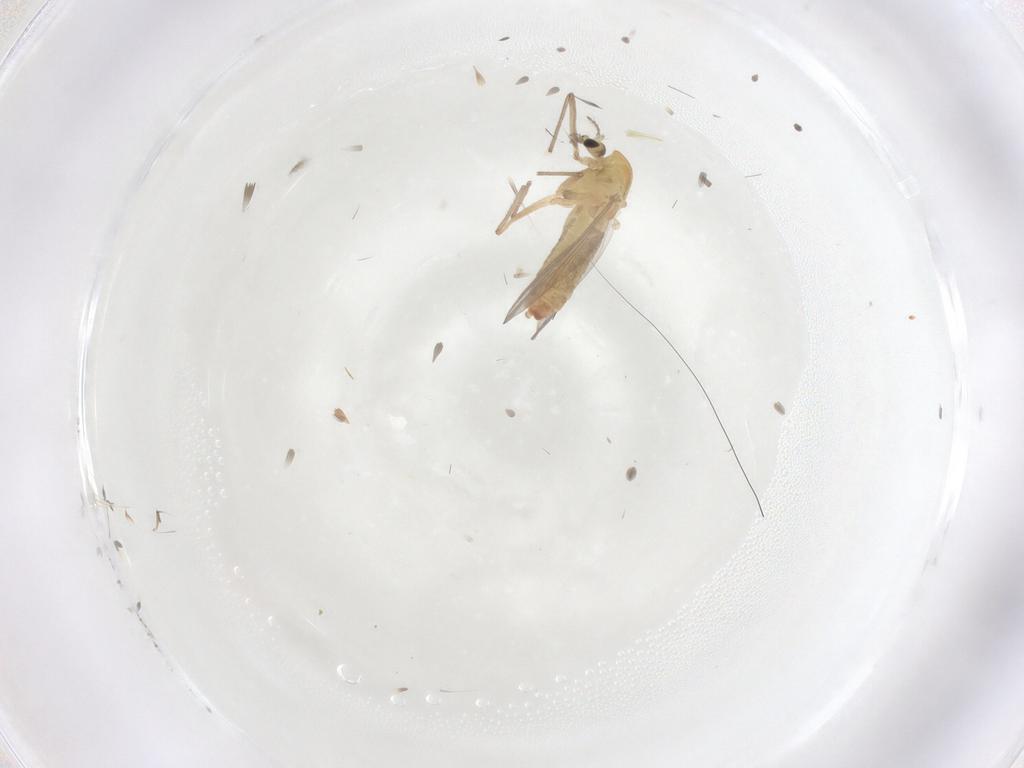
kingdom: Animalia
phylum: Arthropoda
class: Insecta
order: Diptera
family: Chironomidae
